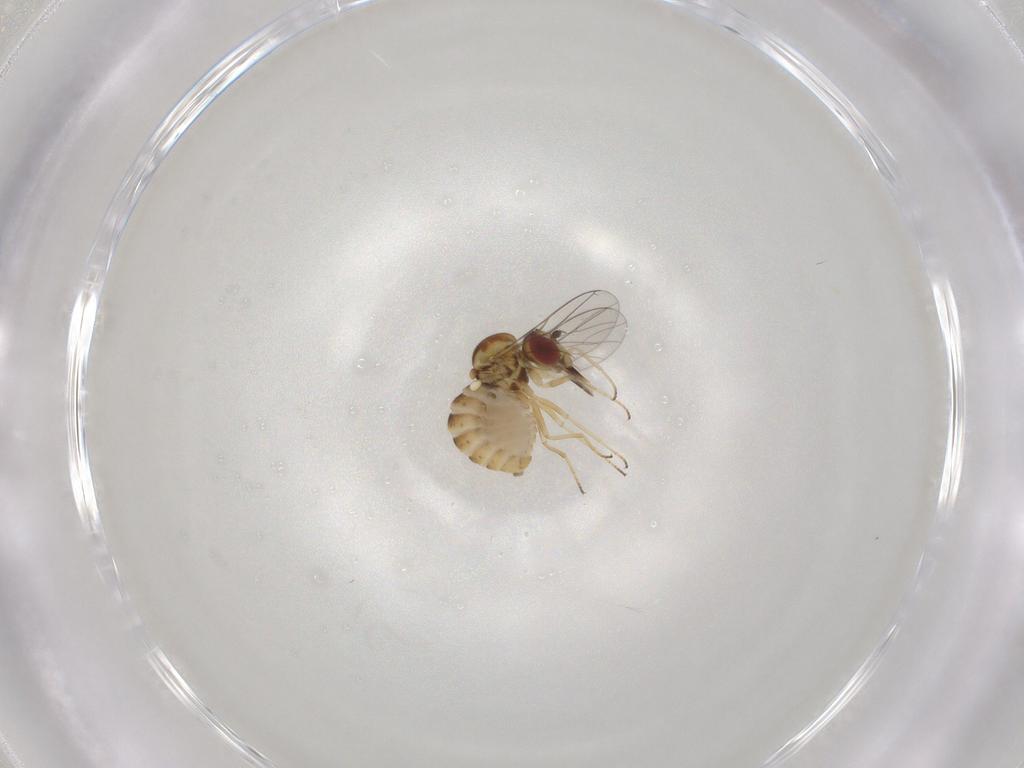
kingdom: Animalia
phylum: Arthropoda
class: Insecta
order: Diptera
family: Mythicomyiidae
